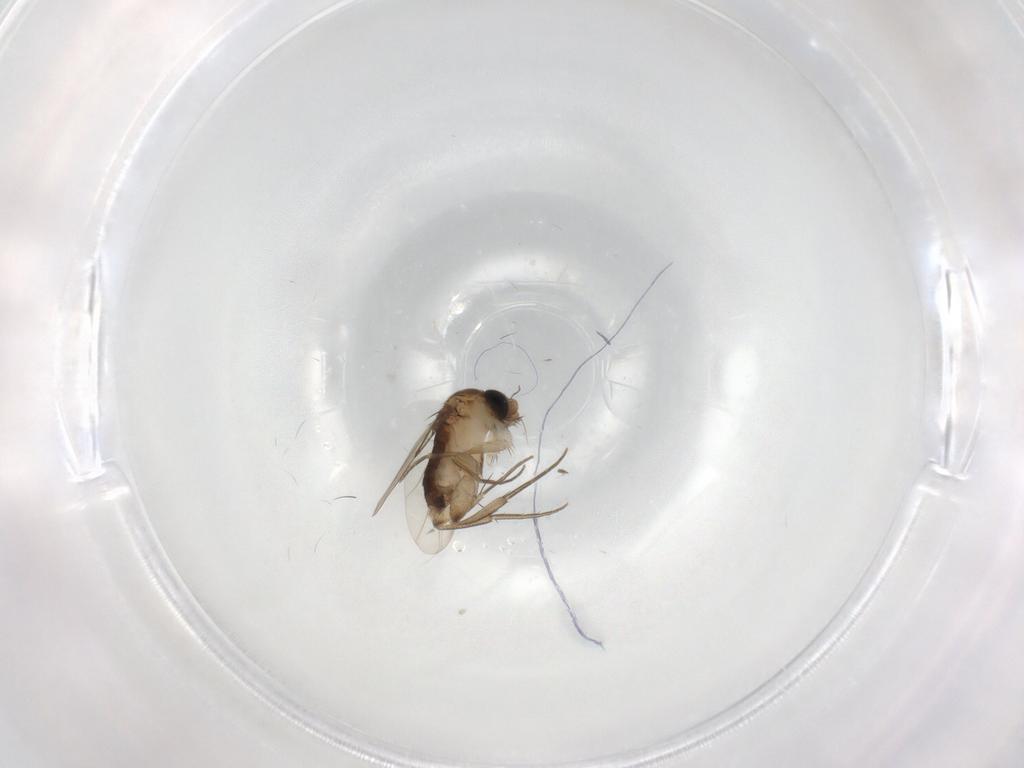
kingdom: Animalia
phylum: Arthropoda
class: Insecta
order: Diptera
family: Phoridae
